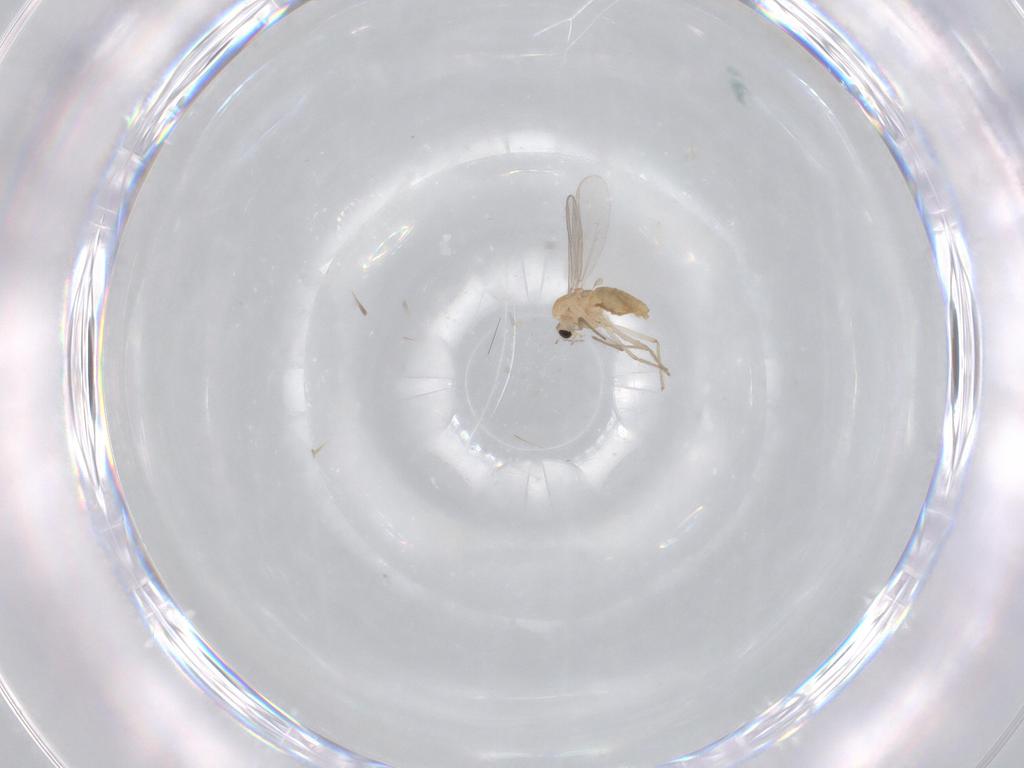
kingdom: Animalia
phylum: Arthropoda
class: Insecta
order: Diptera
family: Chironomidae
